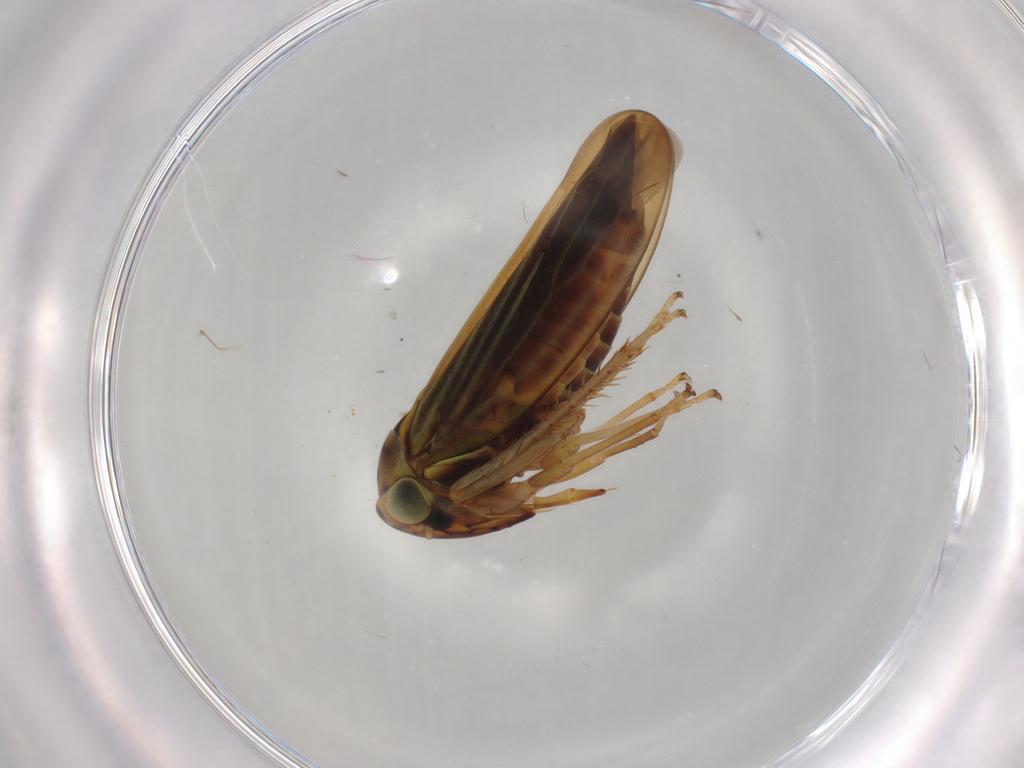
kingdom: Animalia
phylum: Arthropoda
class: Insecta
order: Hemiptera
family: Cicadellidae
